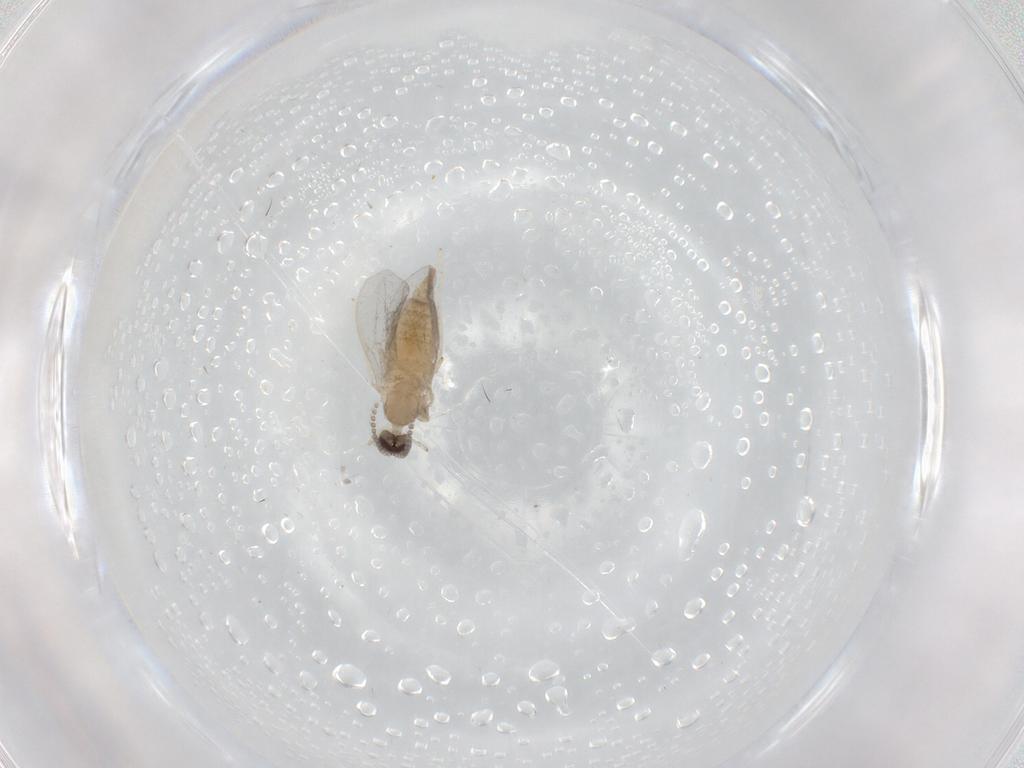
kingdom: Animalia
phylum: Arthropoda
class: Insecta
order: Diptera
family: Cecidomyiidae
